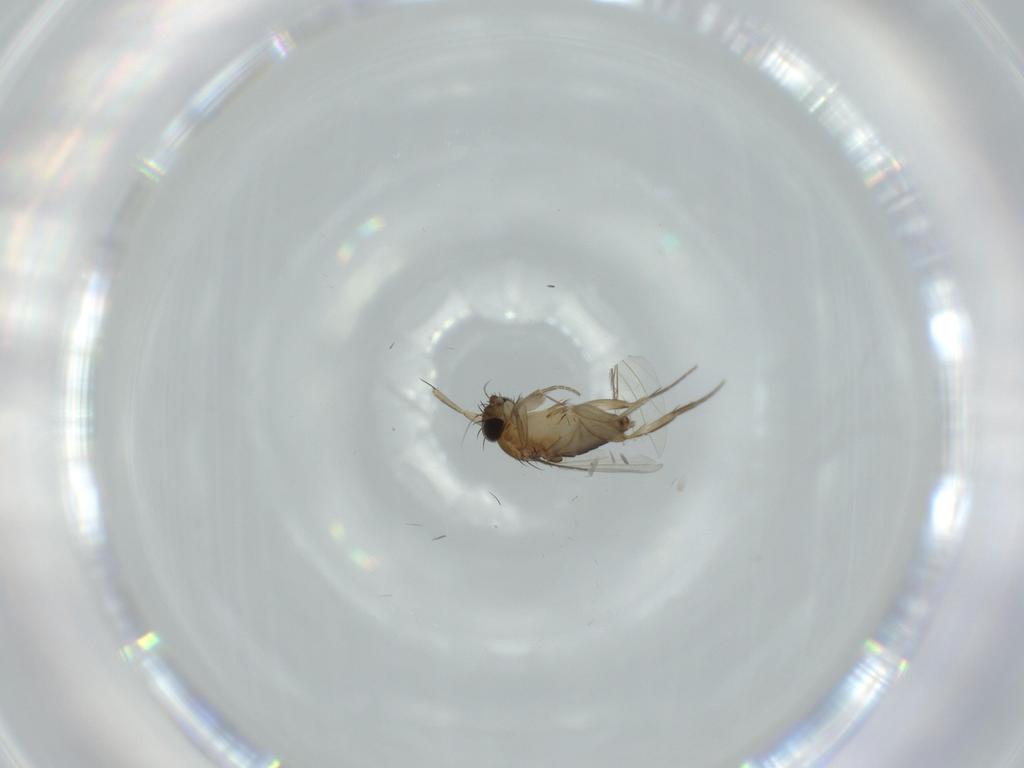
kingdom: Animalia
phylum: Arthropoda
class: Insecta
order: Diptera
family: Phoridae
